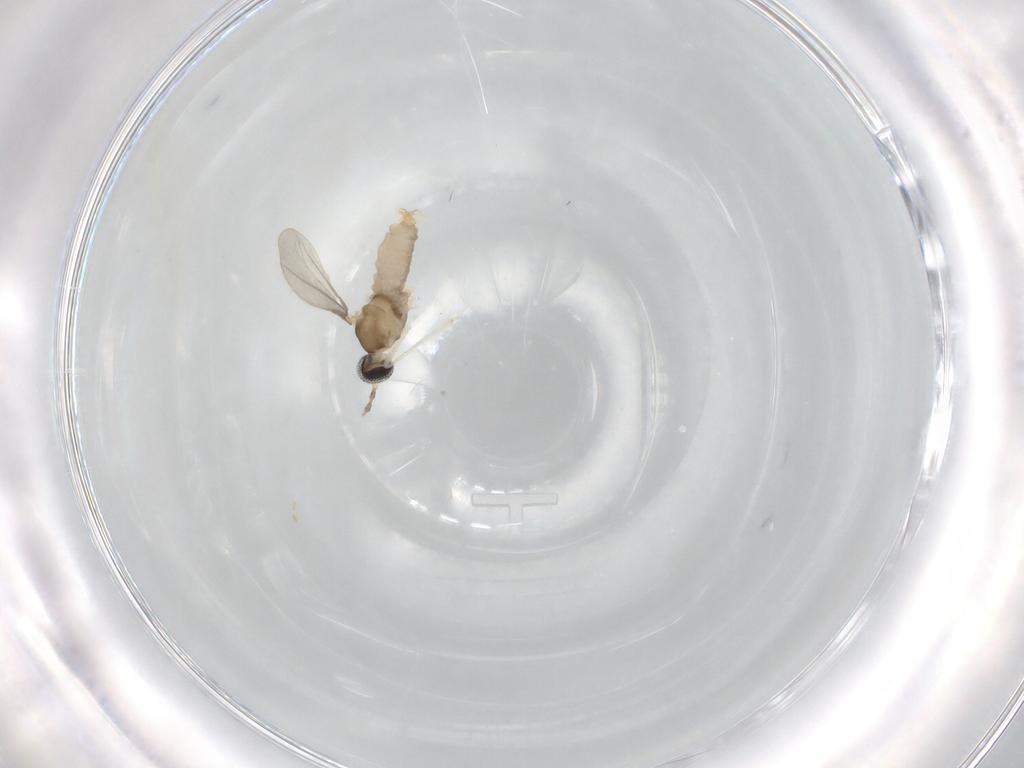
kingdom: Animalia
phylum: Arthropoda
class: Insecta
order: Diptera
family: Cecidomyiidae
